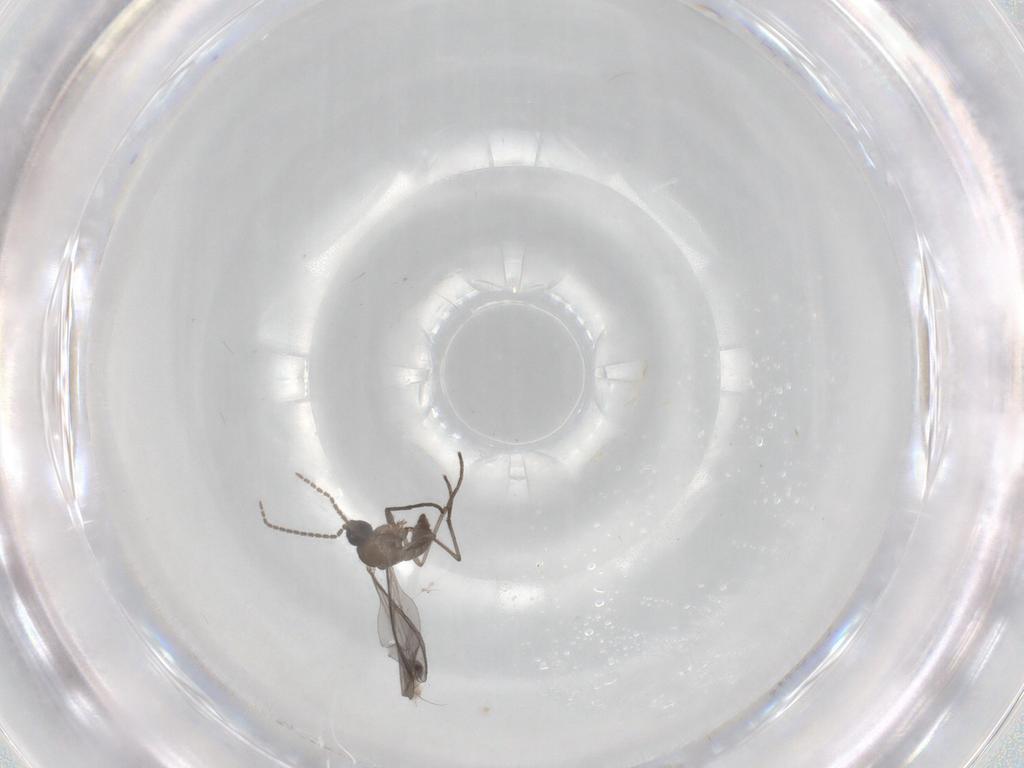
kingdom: Animalia
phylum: Arthropoda
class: Insecta
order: Diptera
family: Sciaridae
